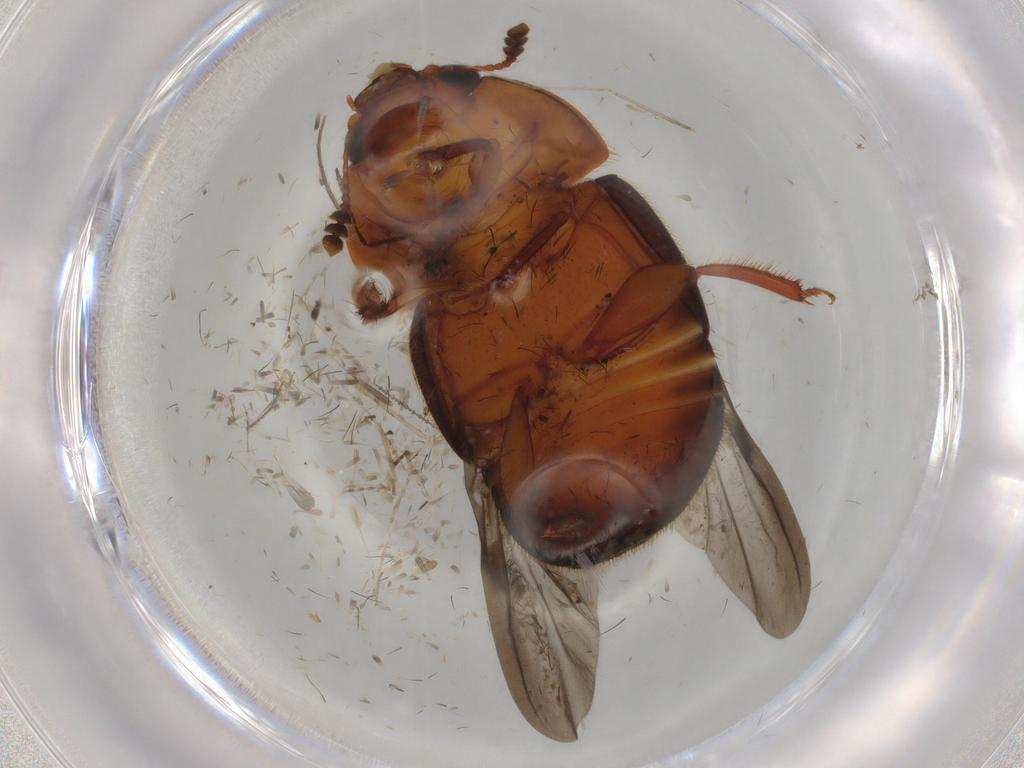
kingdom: Animalia
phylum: Arthropoda
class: Insecta
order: Coleoptera
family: Nitidulidae
